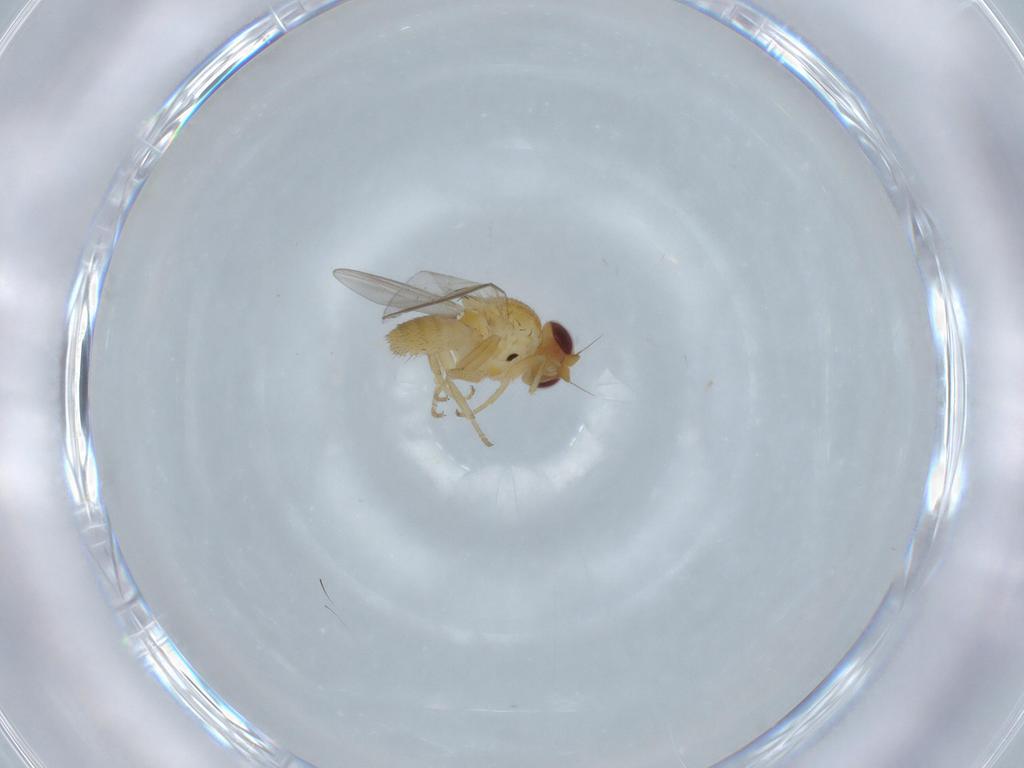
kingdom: Animalia
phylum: Arthropoda
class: Insecta
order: Diptera
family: Chloropidae
